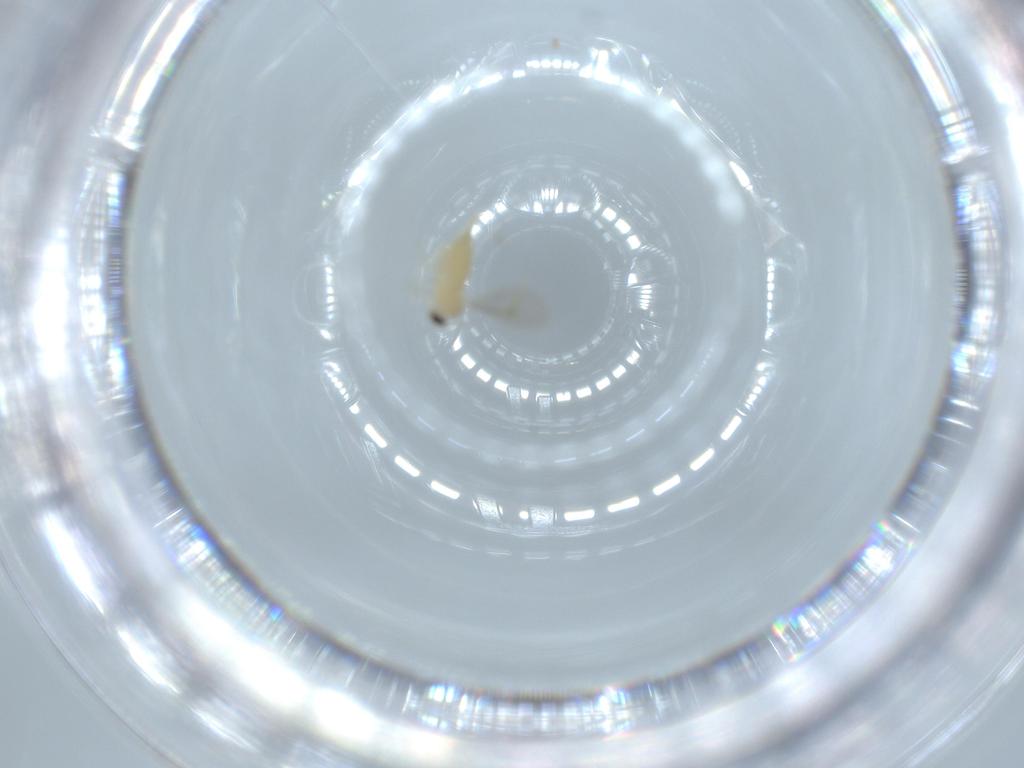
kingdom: Animalia
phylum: Arthropoda
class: Insecta
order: Diptera
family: Cecidomyiidae
